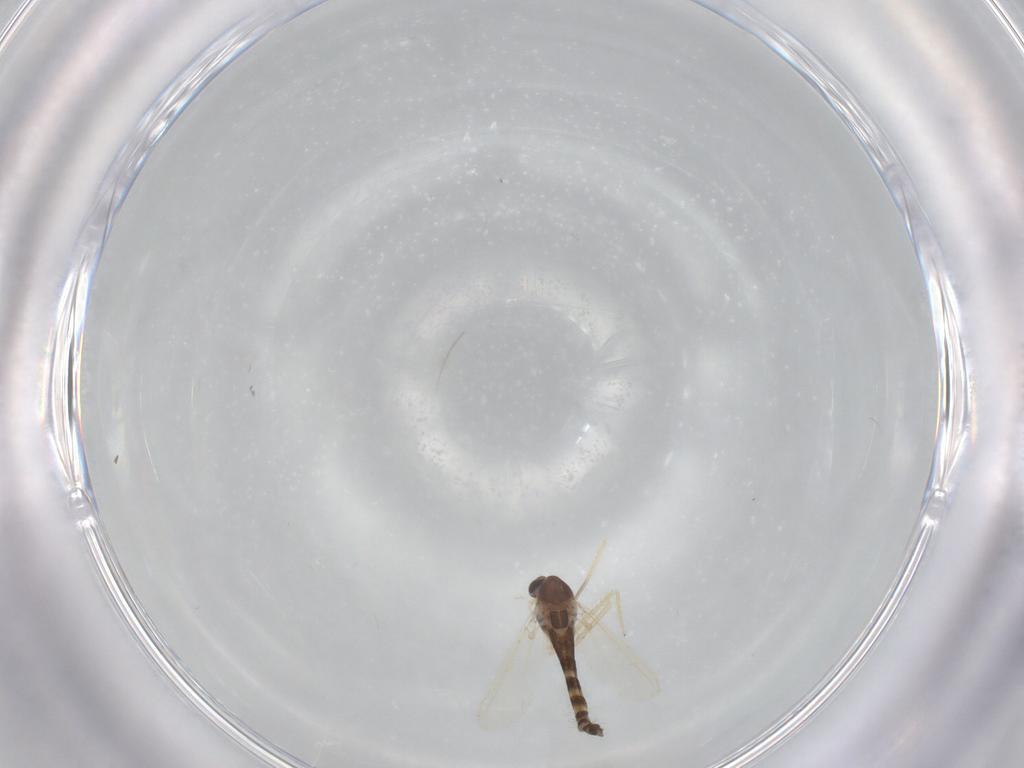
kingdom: Animalia
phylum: Arthropoda
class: Insecta
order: Diptera
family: Chironomidae
